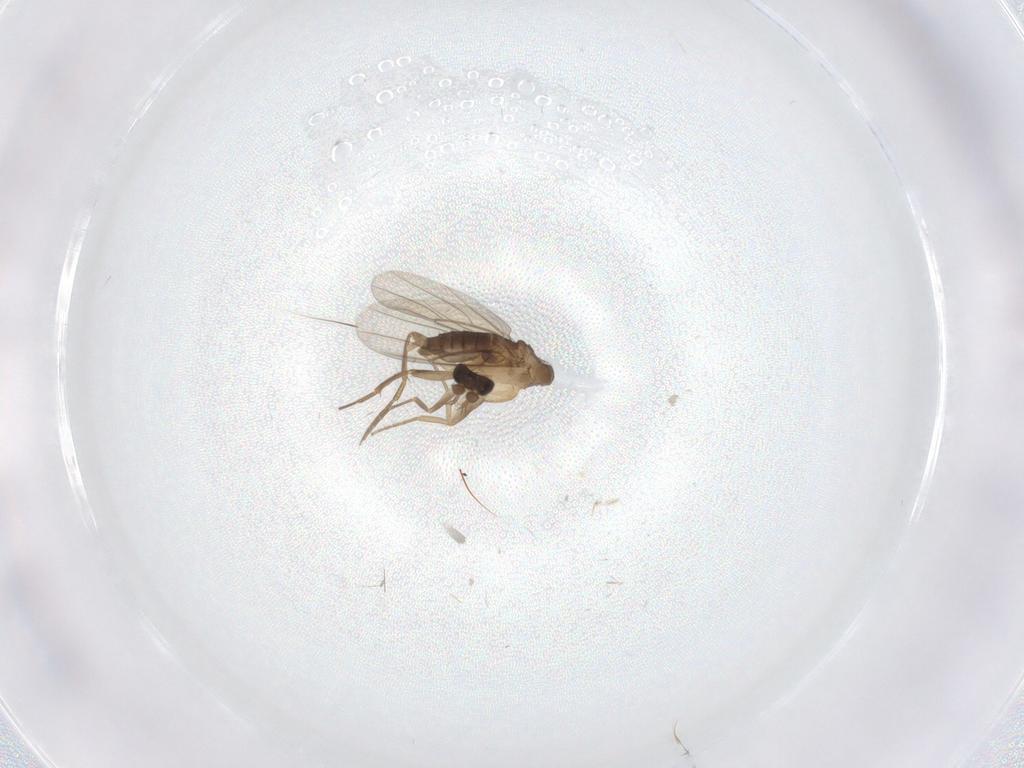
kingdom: Animalia
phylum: Arthropoda
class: Insecta
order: Diptera
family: Phoridae
